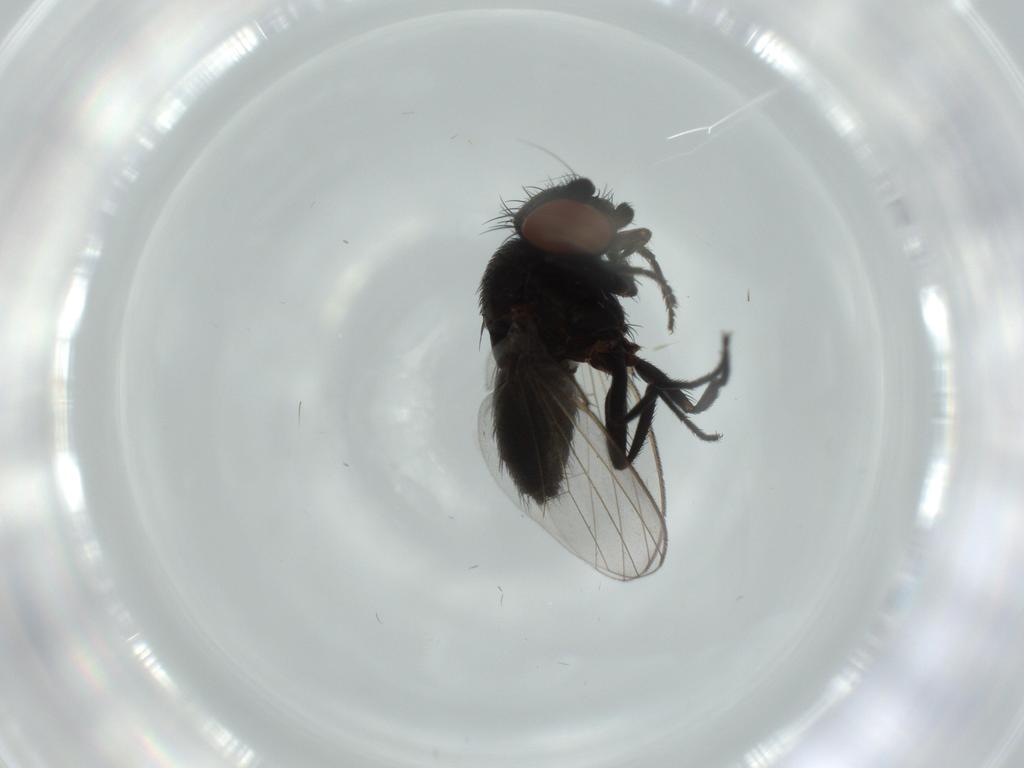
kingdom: Animalia
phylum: Arthropoda
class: Insecta
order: Diptera
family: Milichiidae
